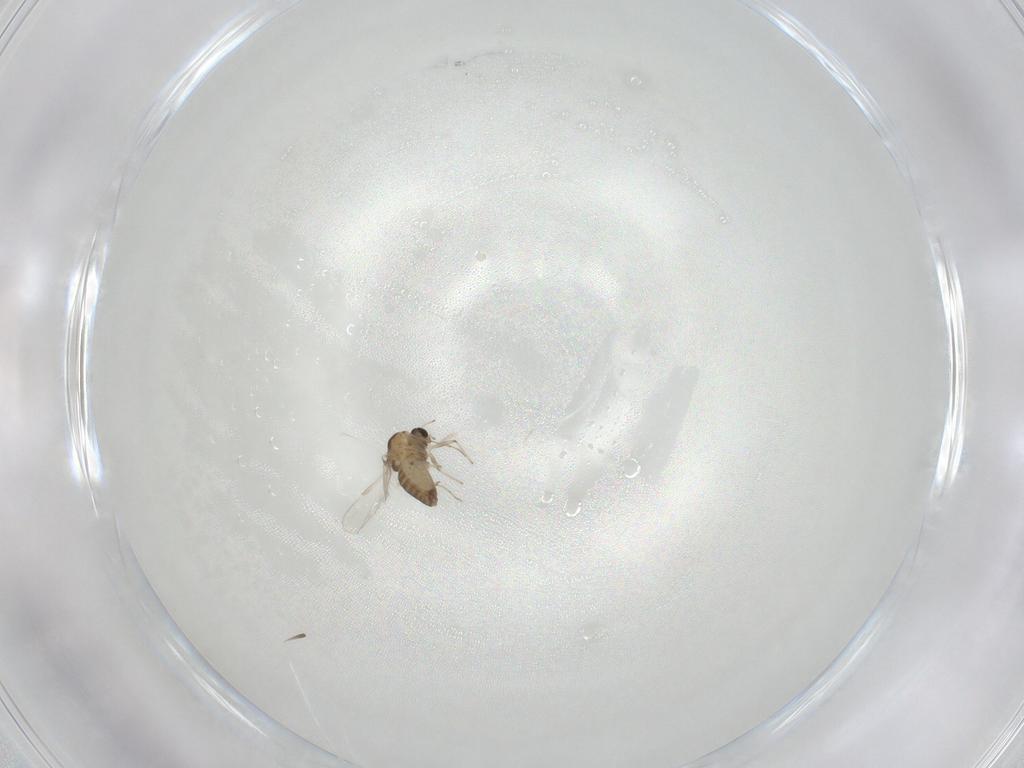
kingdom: Animalia
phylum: Arthropoda
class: Insecta
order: Diptera
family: Chironomidae
